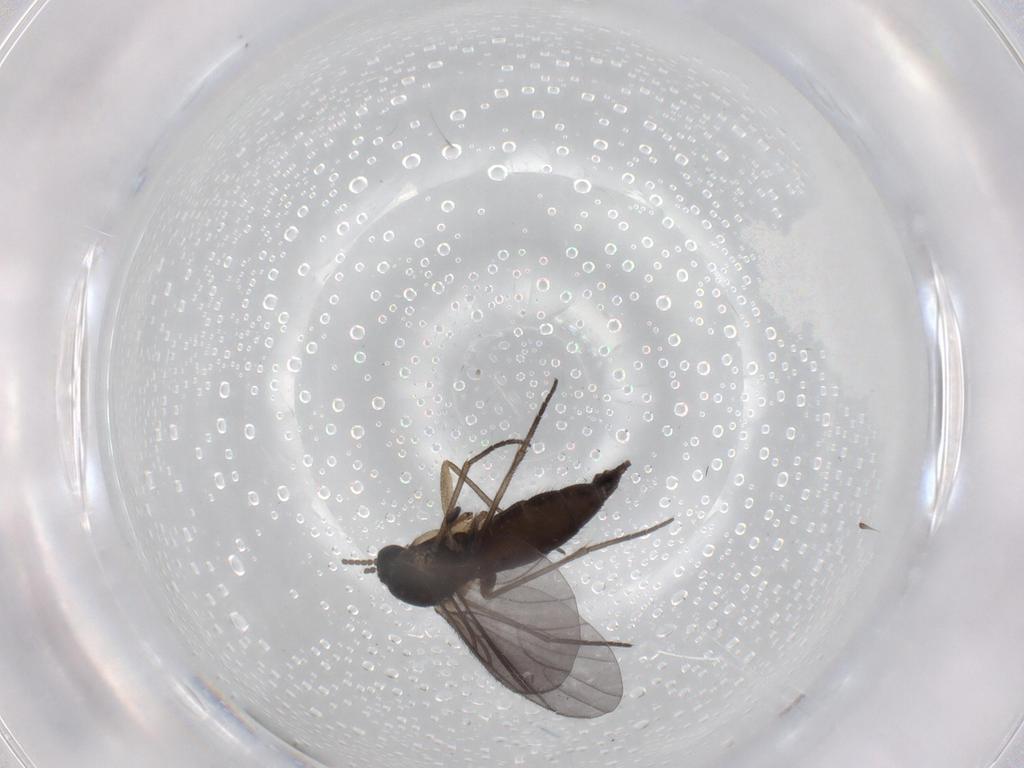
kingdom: Animalia
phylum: Arthropoda
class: Insecta
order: Diptera
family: Sciaridae
